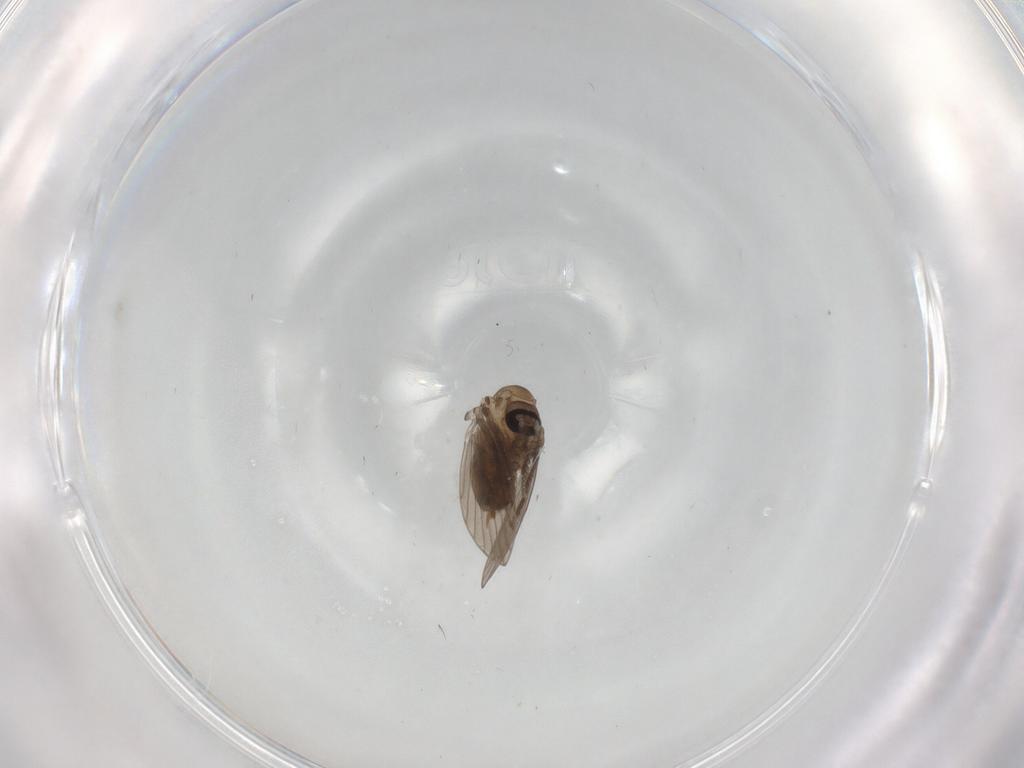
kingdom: Animalia
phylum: Arthropoda
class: Insecta
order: Diptera
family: Psychodidae
